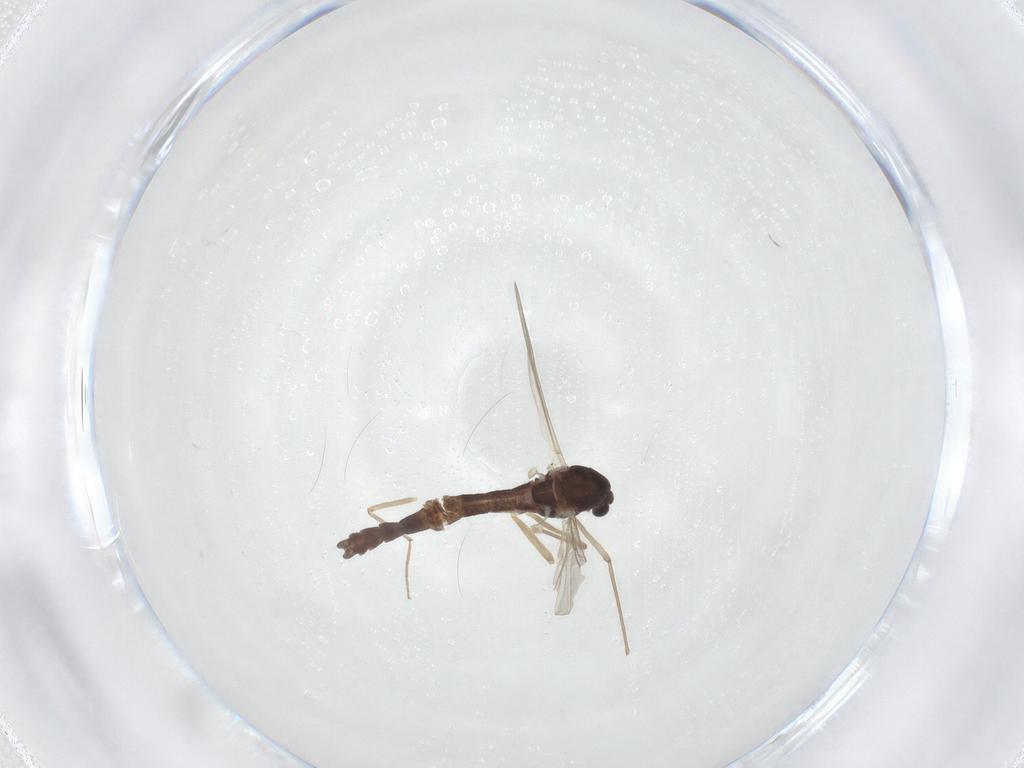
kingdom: Animalia
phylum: Arthropoda
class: Insecta
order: Diptera
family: Chironomidae
